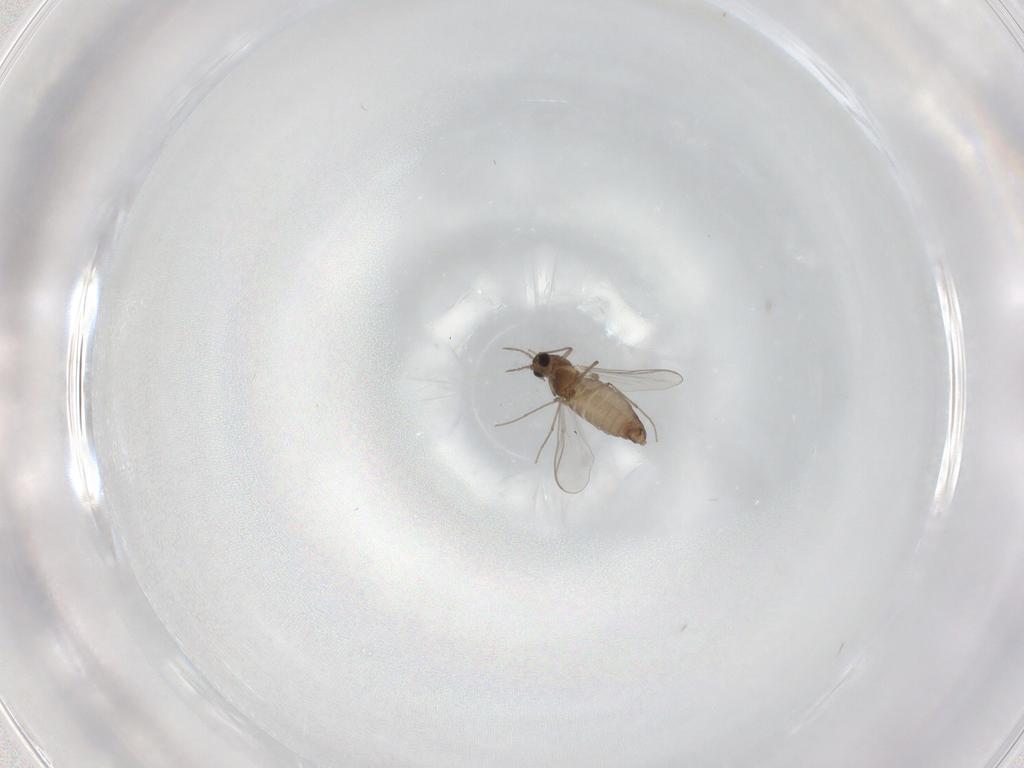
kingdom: Animalia
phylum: Arthropoda
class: Insecta
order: Diptera
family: Chironomidae
